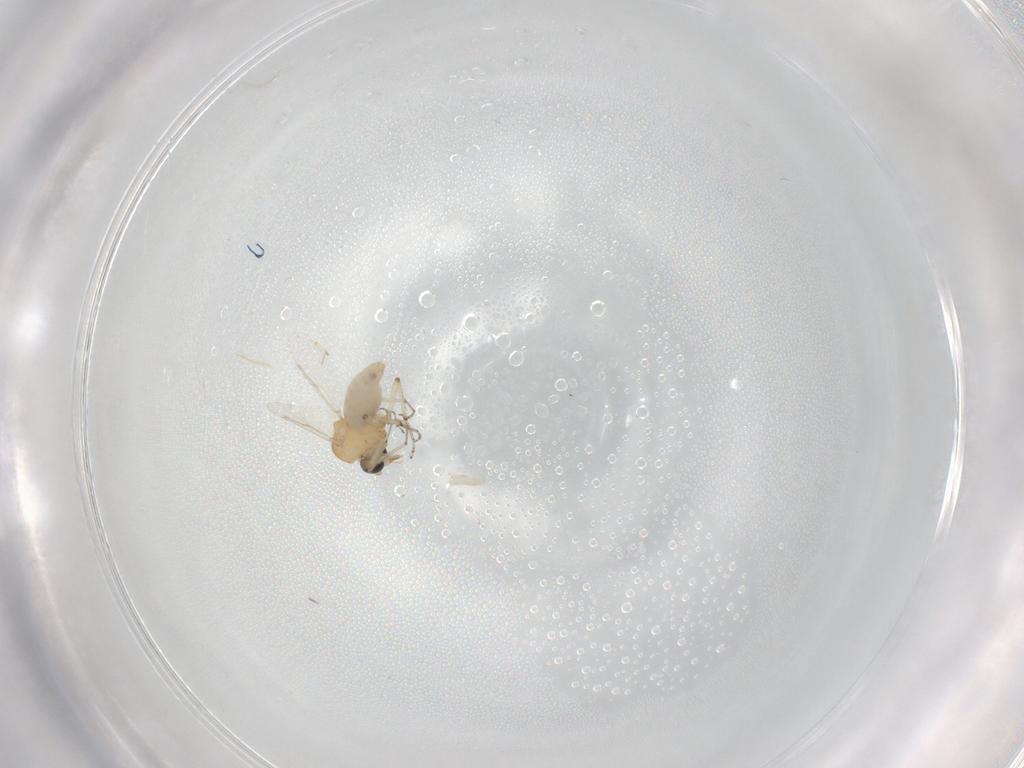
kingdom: Animalia
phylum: Arthropoda
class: Insecta
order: Diptera
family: Ceratopogonidae
